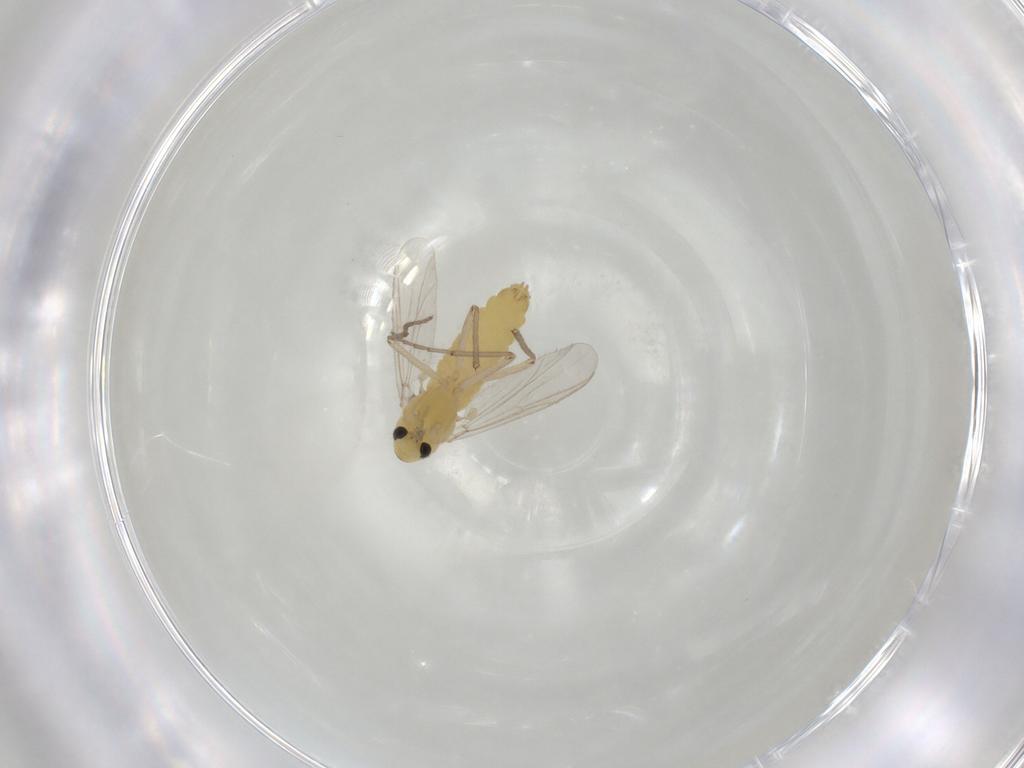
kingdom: Animalia
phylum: Arthropoda
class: Insecta
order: Diptera
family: Chironomidae
